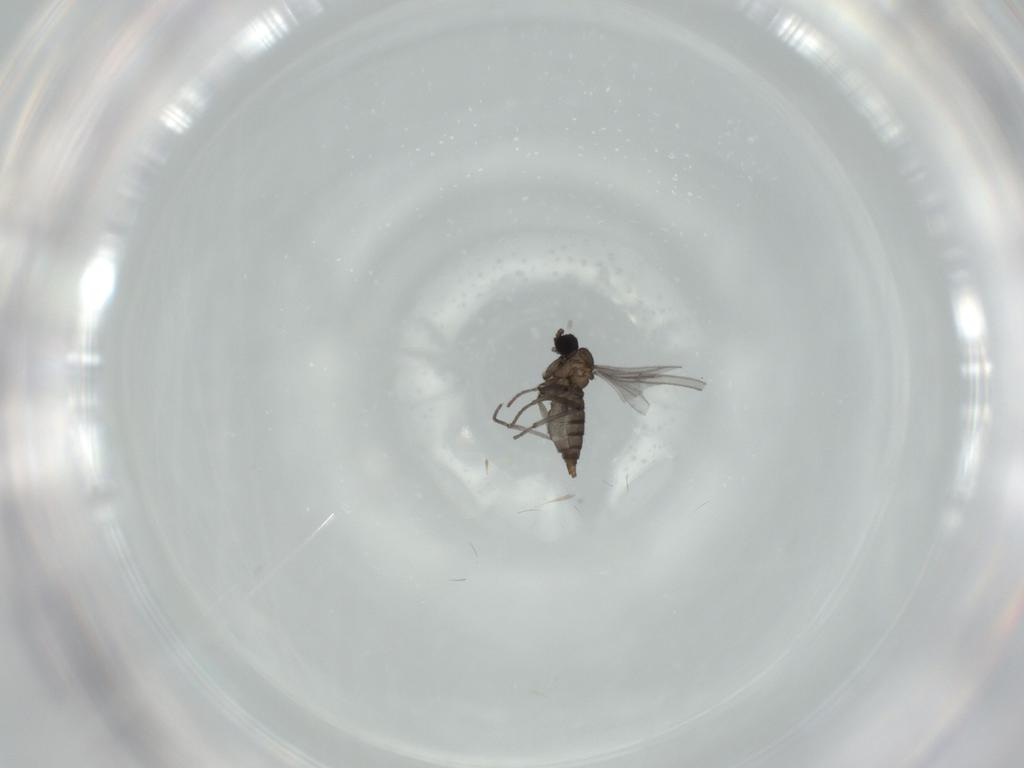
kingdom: Animalia
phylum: Arthropoda
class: Insecta
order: Diptera
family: Sciaridae
